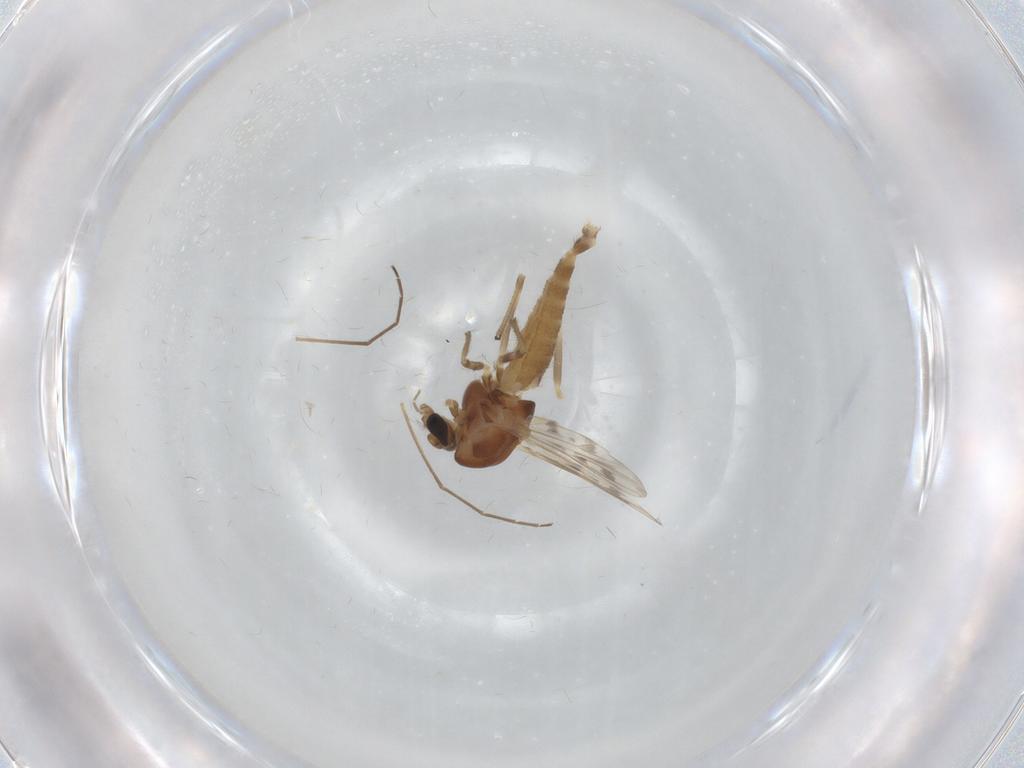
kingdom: Animalia
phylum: Arthropoda
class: Insecta
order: Diptera
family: Chironomidae
